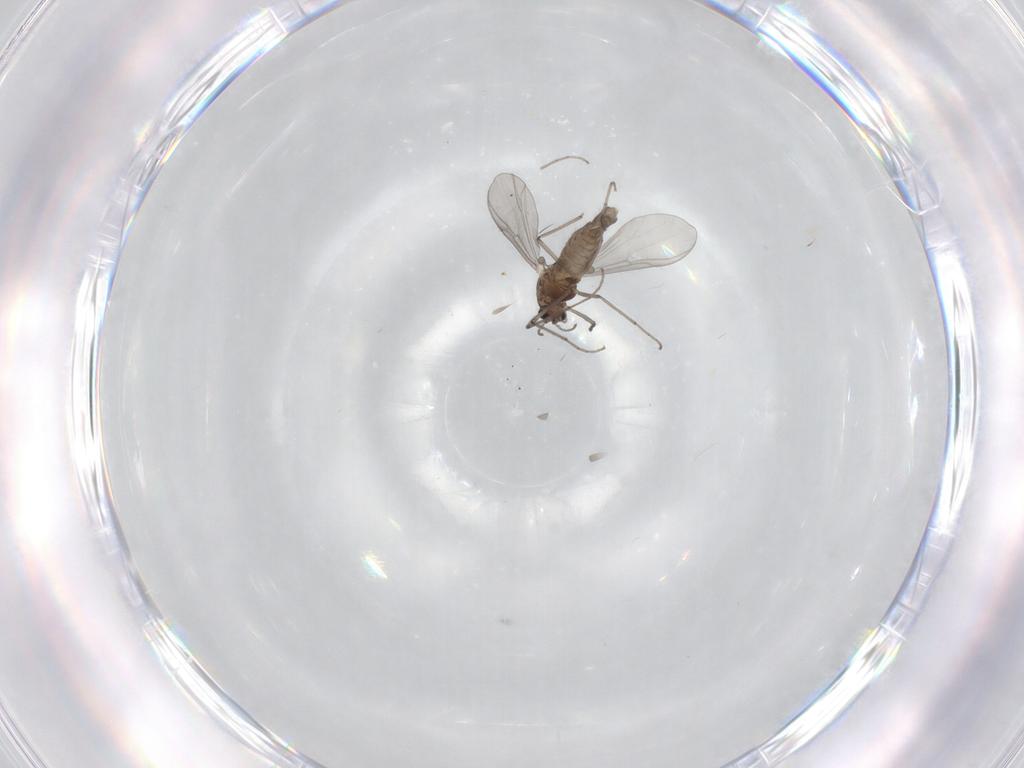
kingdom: Animalia
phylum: Arthropoda
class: Insecta
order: Diptera
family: Chironomidae
